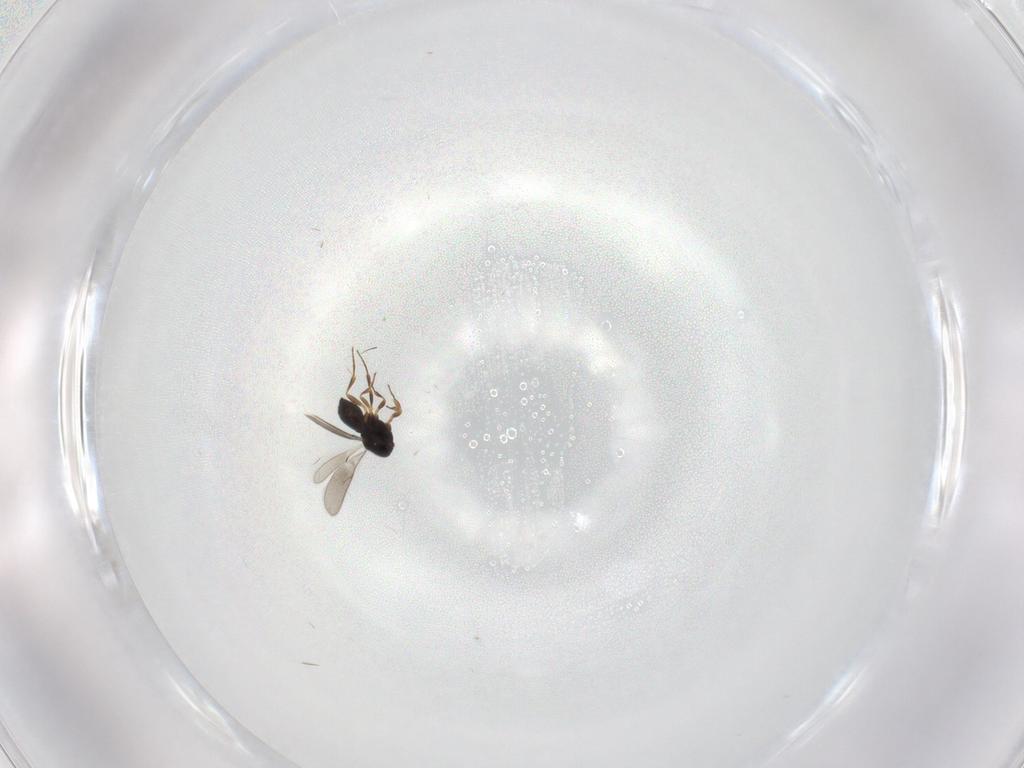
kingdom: Animalia
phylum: Arthropoda
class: Insecta
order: Hymenoptera
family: Scelionidae
